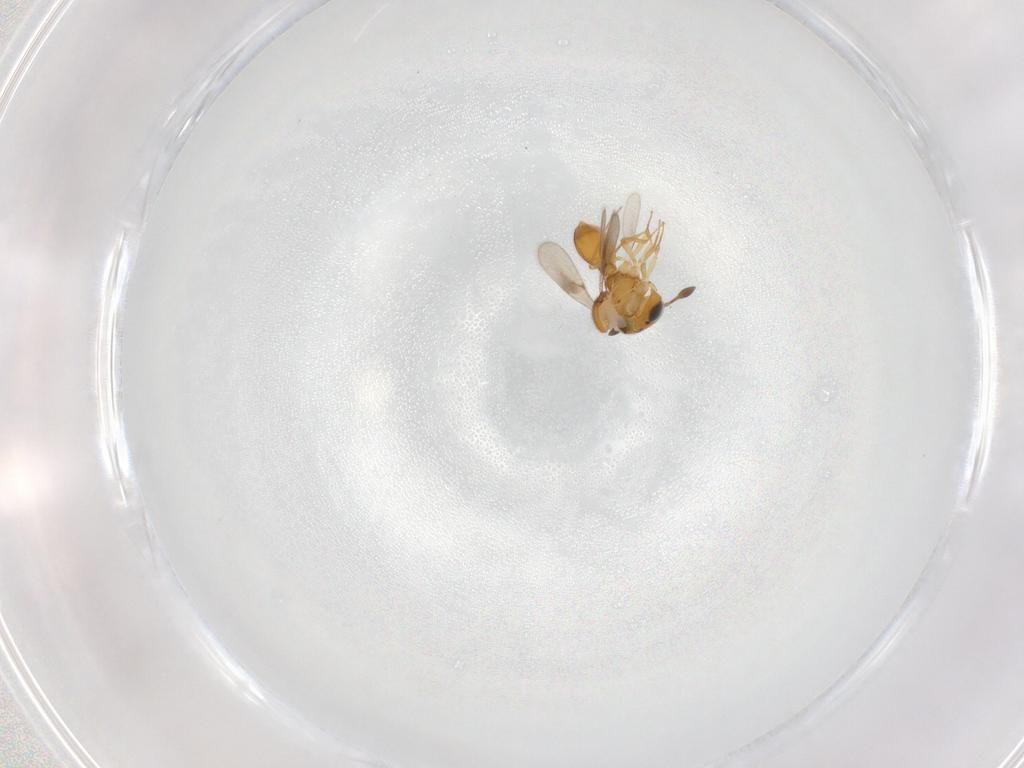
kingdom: Animalia
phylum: Arthropoda
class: Insecta
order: Hymenoptera
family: Scelionidae
